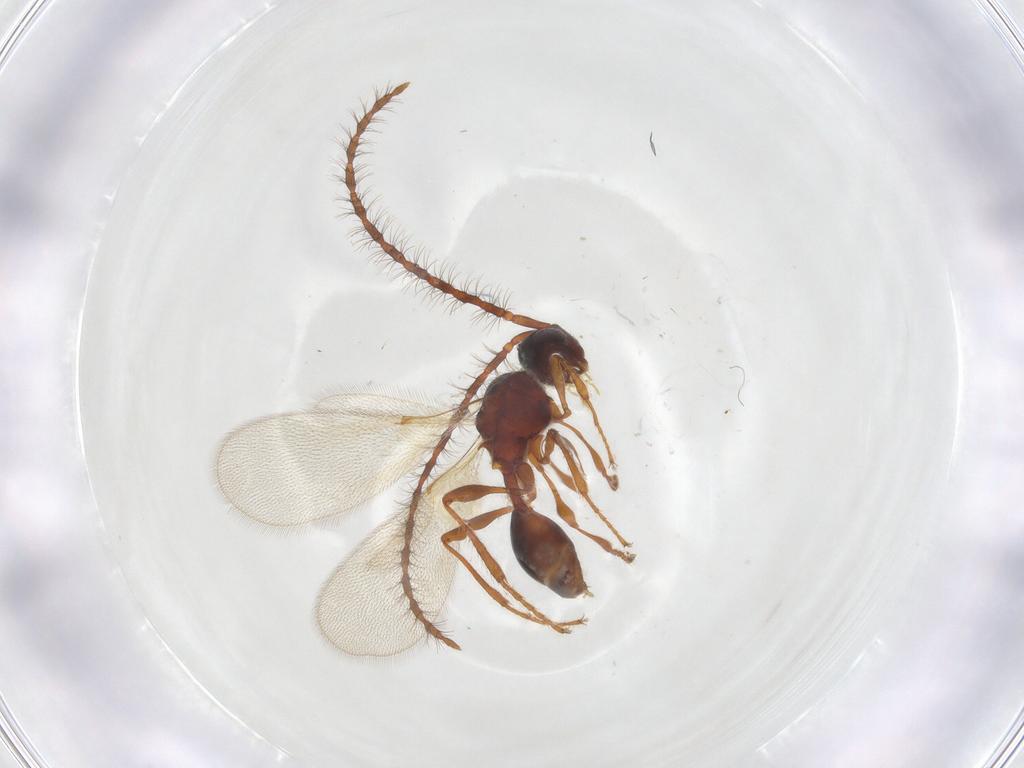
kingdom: Animalia
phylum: Arthropoda
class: Insecta
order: Hymenoptera
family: Diapriidae
